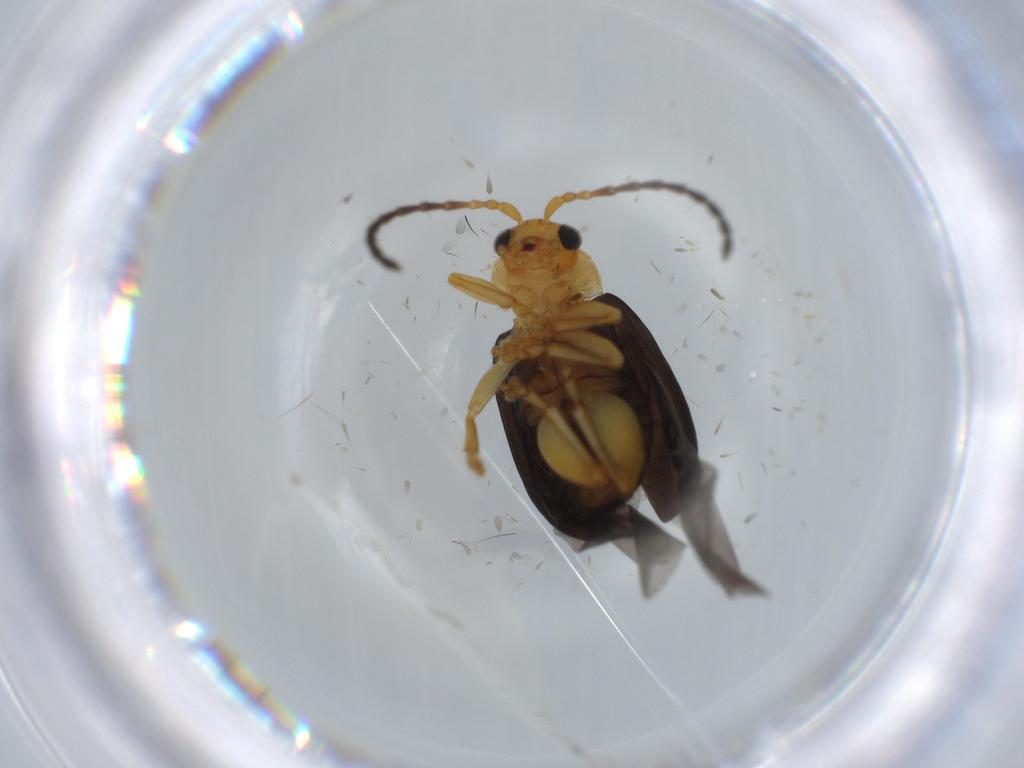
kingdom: Animalia
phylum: Arthropoda
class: Insecta
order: Coleoptera
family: Chrysomelidae
